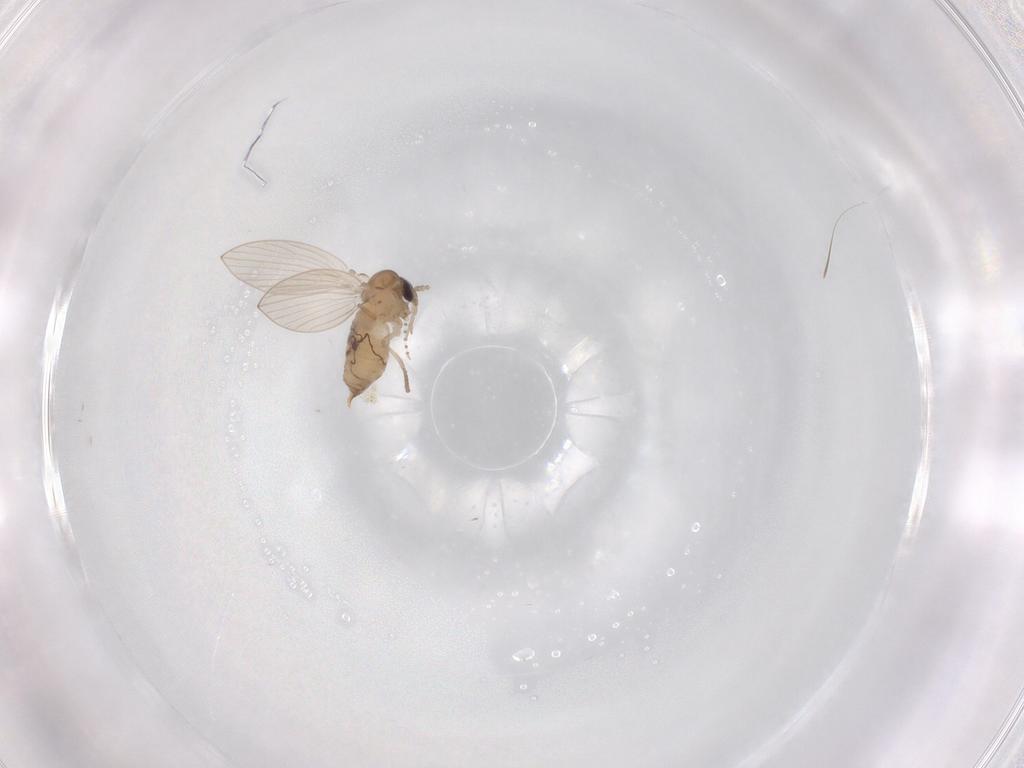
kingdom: Animalia
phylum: Arthropoda
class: Insecta
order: Diptera
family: Psychodidae
